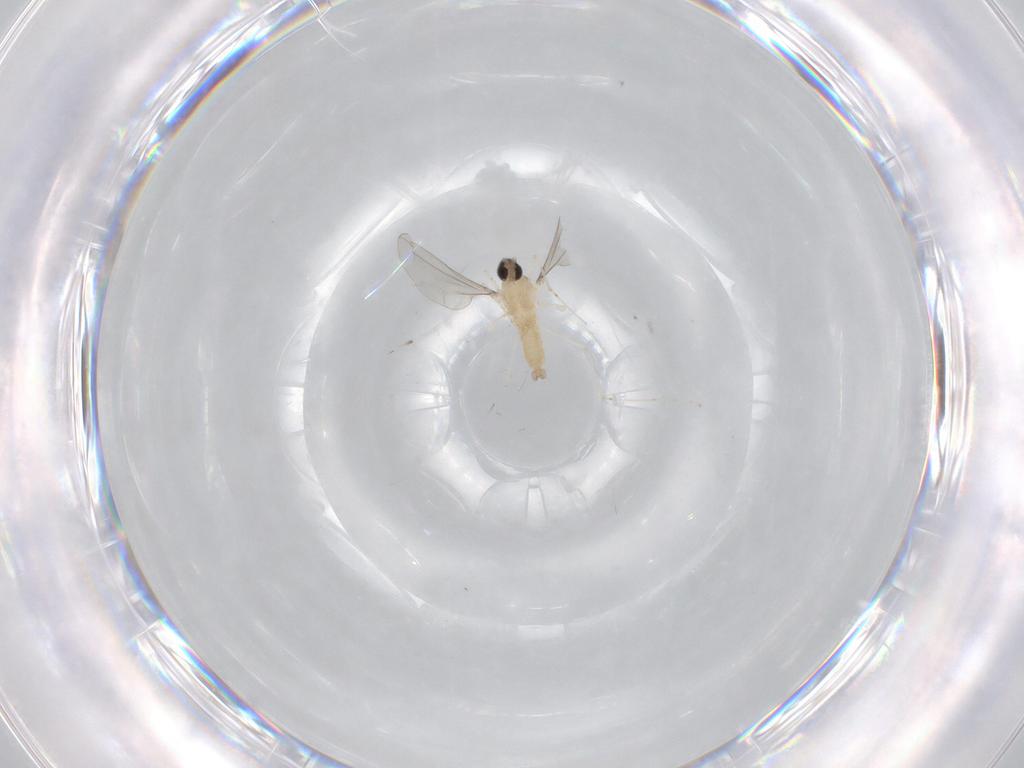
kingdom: Animalia
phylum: Arthropoda
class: Insecta
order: Diptera
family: Cecidomyiidae
